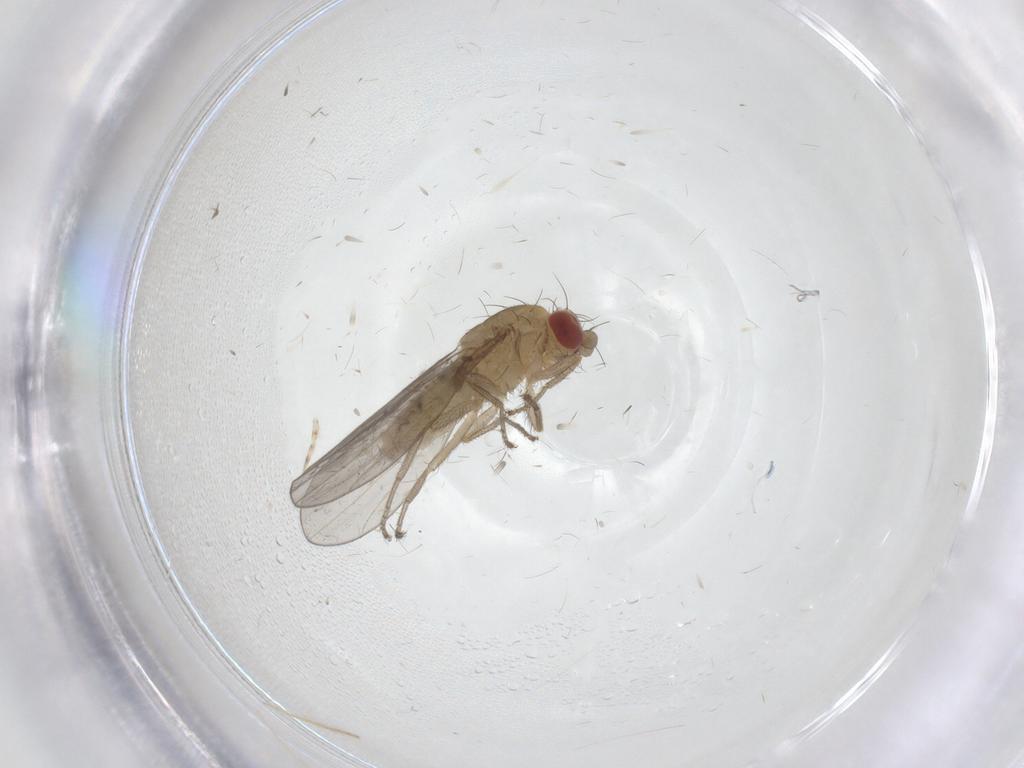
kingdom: Animalia
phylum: Arthropoda
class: Insecta
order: Diptera
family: Anthomyzidae
